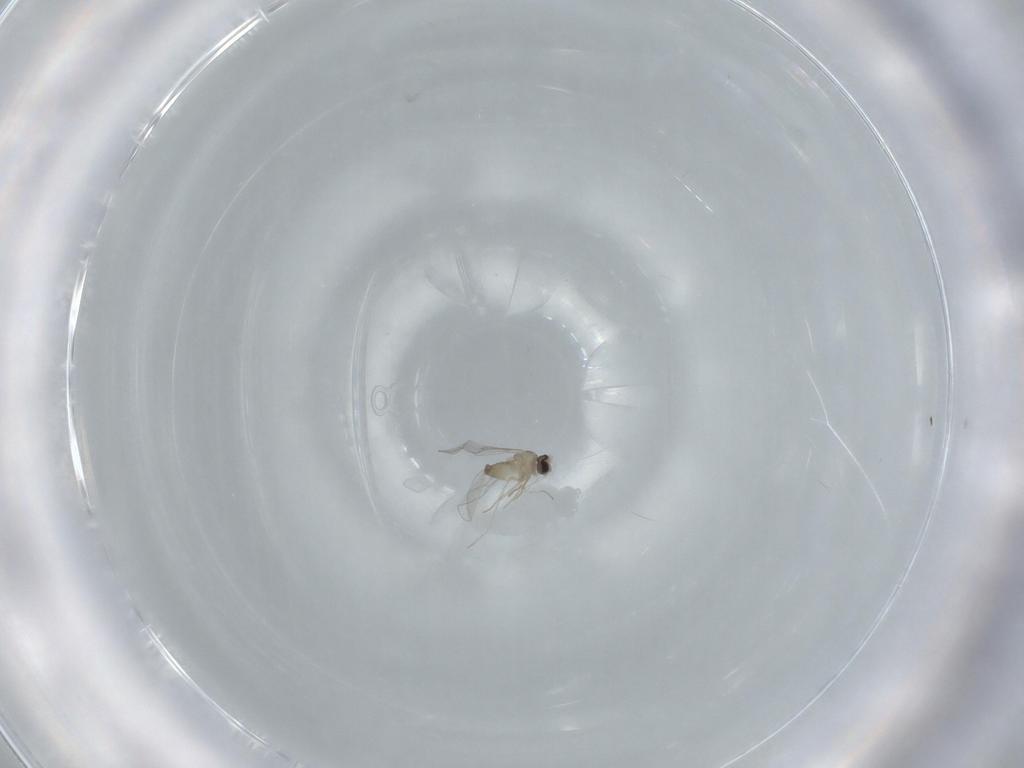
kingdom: Animalia
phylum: Arthropoda
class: Insecta
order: Diptera
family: Cecidomyiidae
